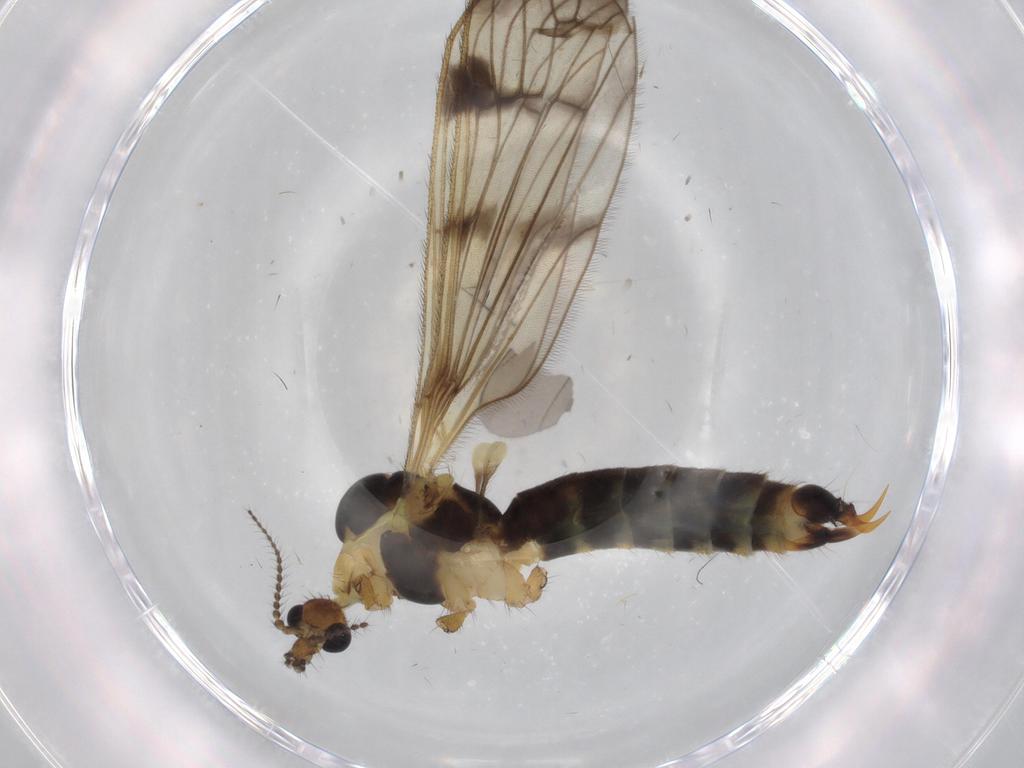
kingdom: Animalia
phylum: Arthropoda
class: Insecta
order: Diptera
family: Limoniidae
